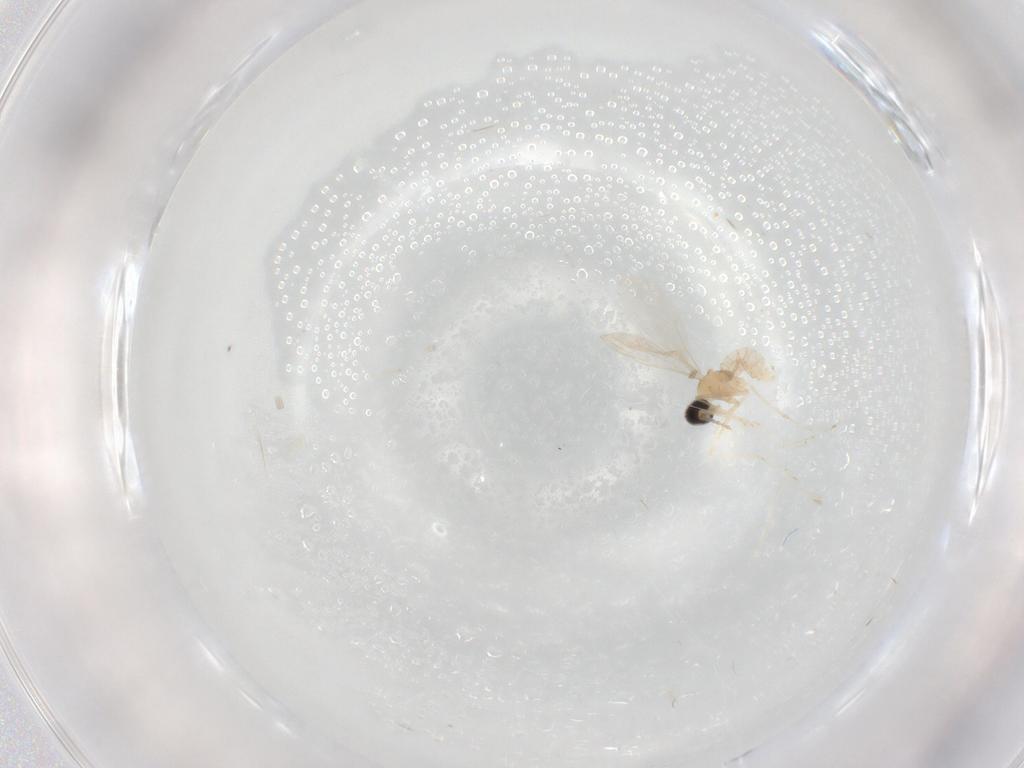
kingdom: Animalia
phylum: Arthropoda
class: Insecta
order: Diptera
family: Cecidomyiidae
